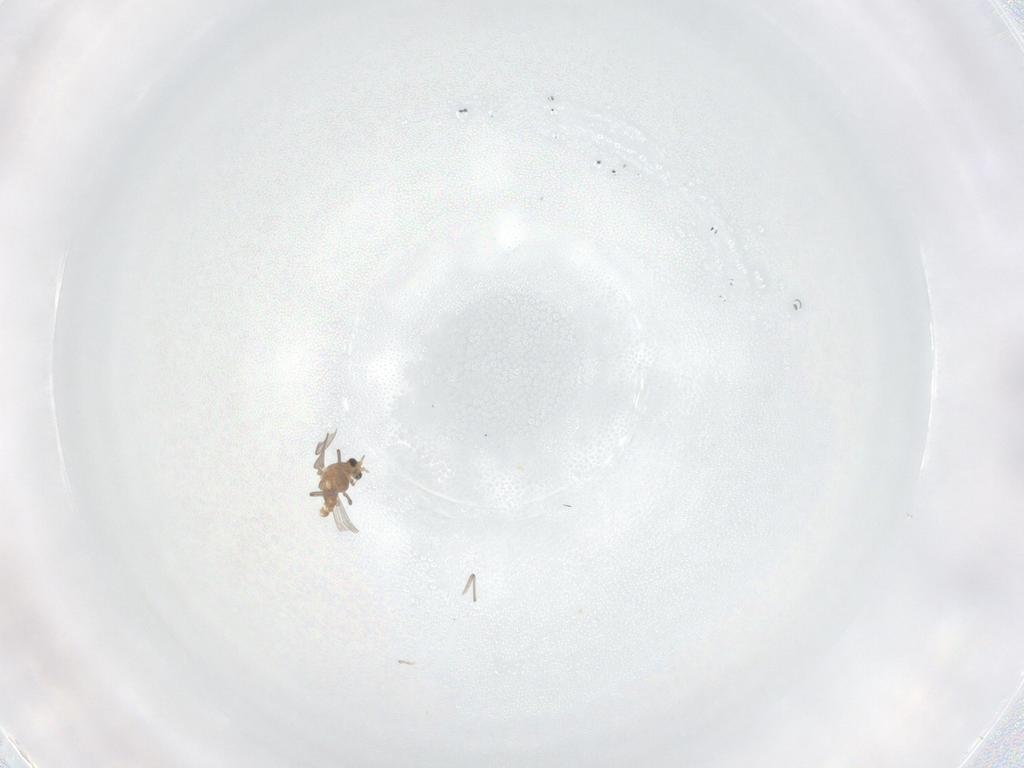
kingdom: Animalia
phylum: Arthropoda
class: Insecta
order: Diptera
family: Chironomidae
